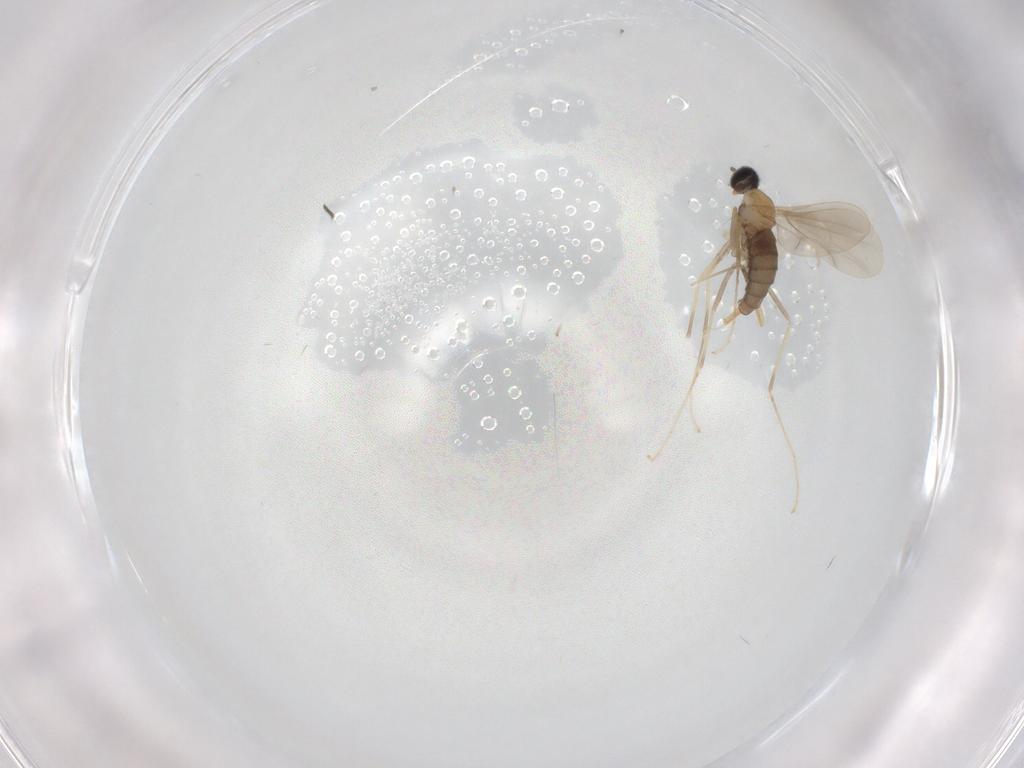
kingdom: Animalia
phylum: Arthropoda
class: Insecta
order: Diptera
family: Cecidomyiidae
